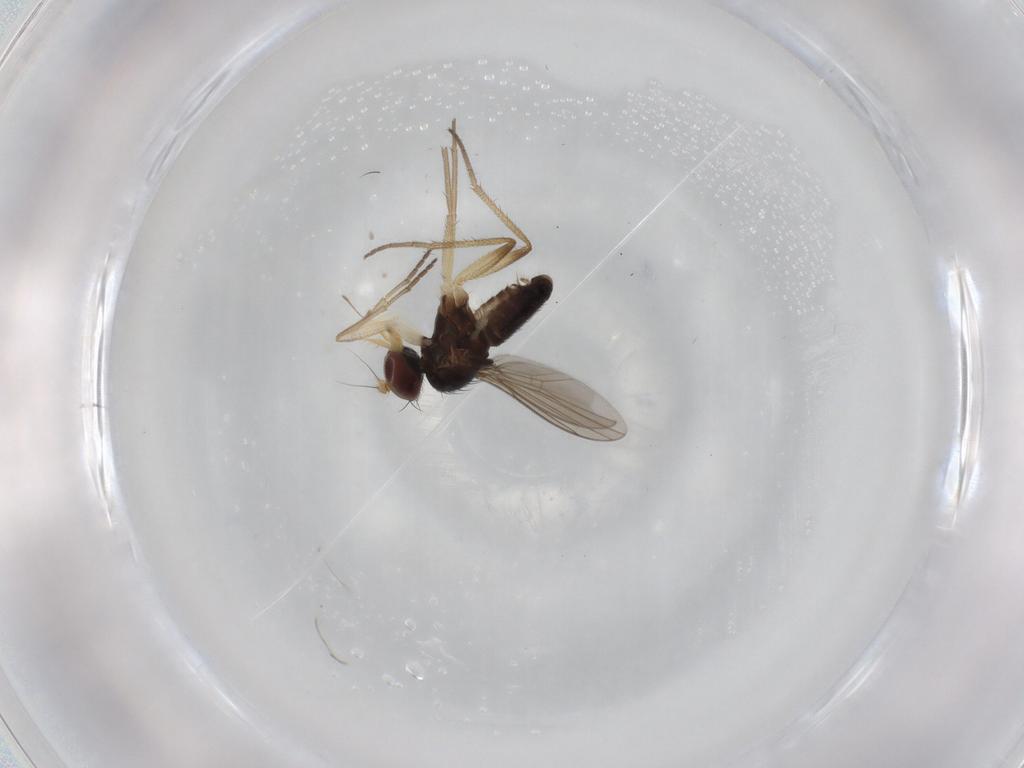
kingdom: Animalia
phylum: Arthropoda
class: Insecta
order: Diptera
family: Dolichopodidae
